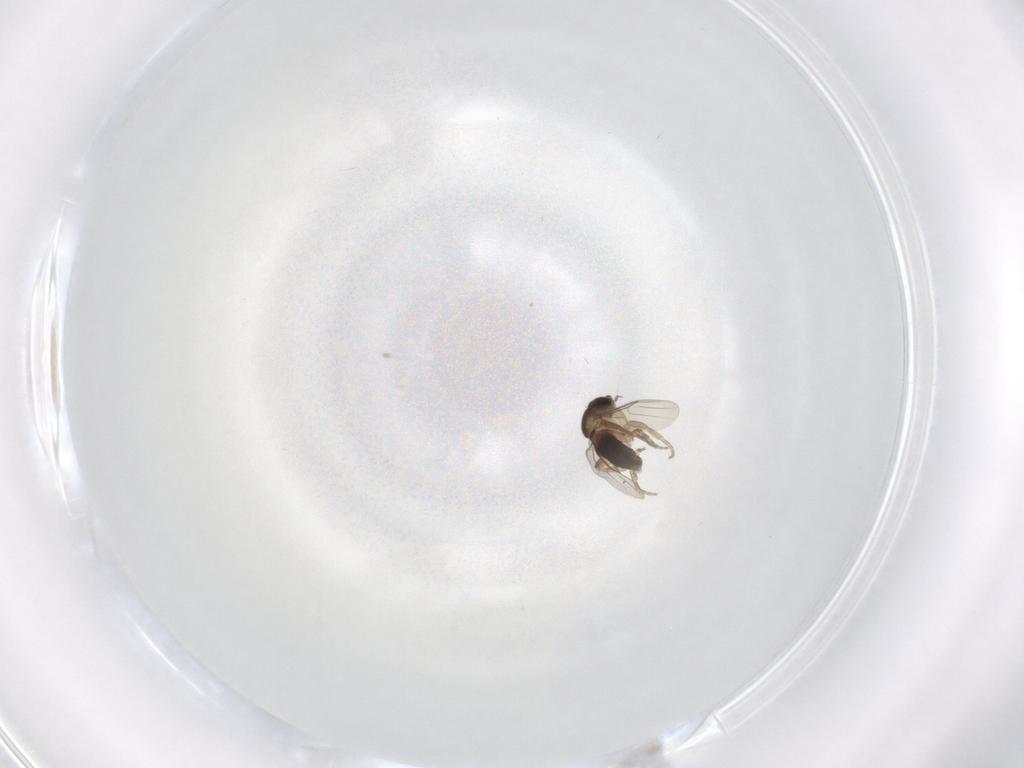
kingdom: Animalia
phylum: Arthropoda
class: Insecta
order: Diptera
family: Phoridae
